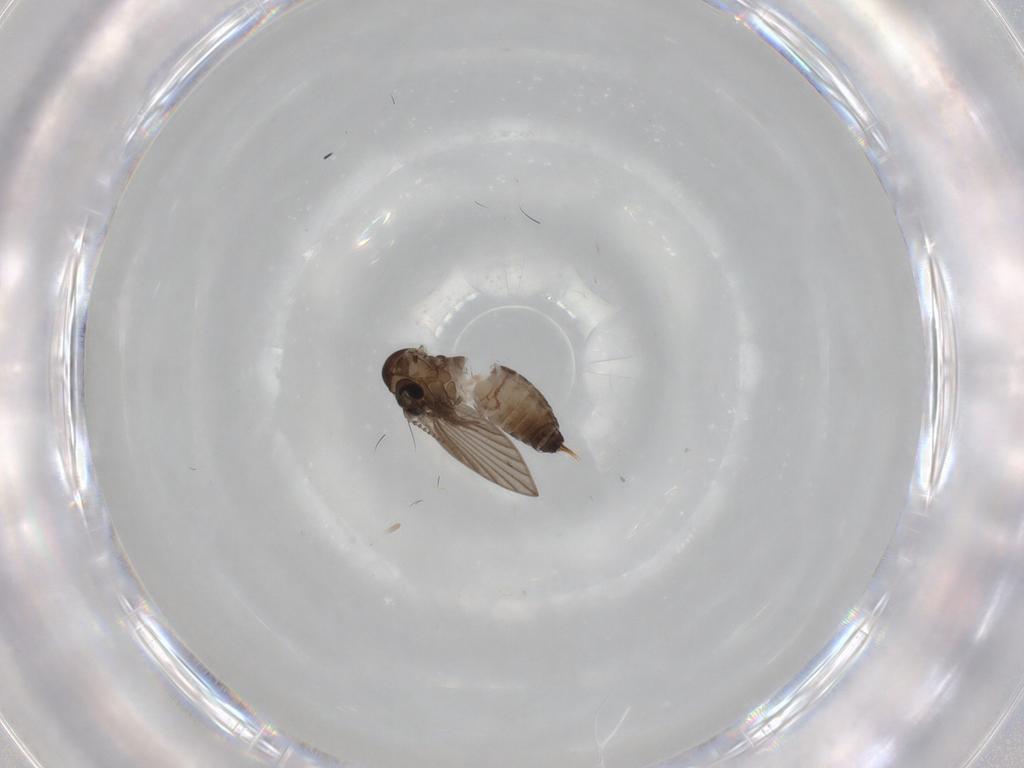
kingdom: Animalia
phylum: Arthropoda
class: Insecta
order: Diptera
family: Psychodidae
